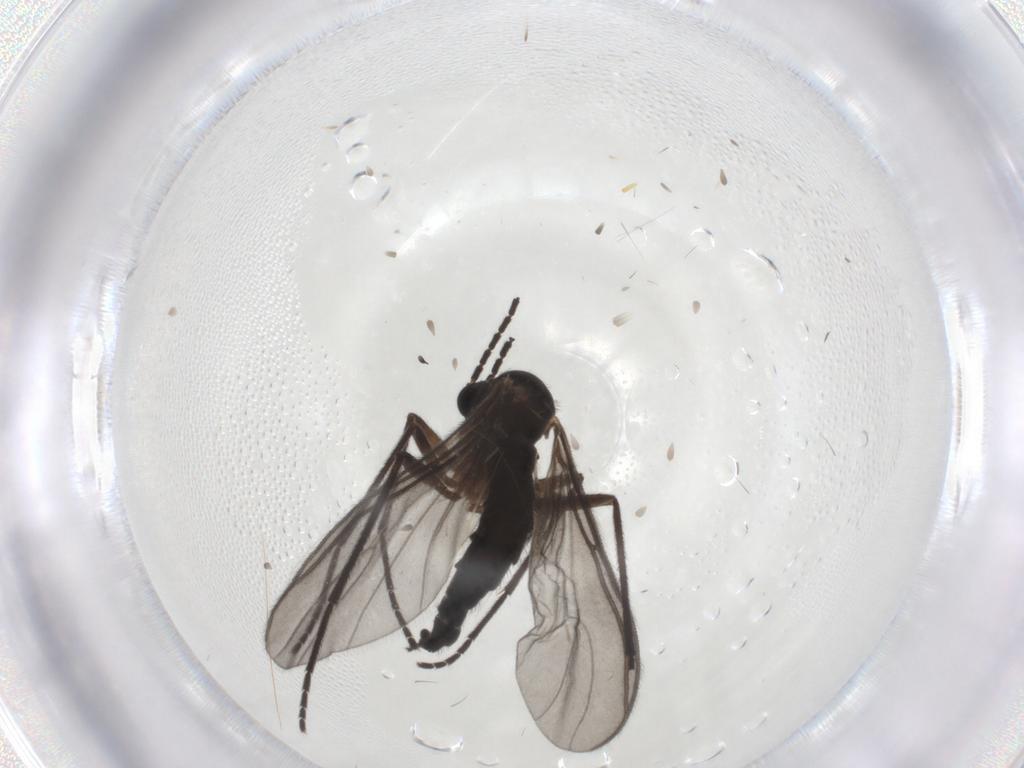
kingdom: Animalia
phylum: Arthropoda
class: Insecta
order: Diptera
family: Sciaridae
